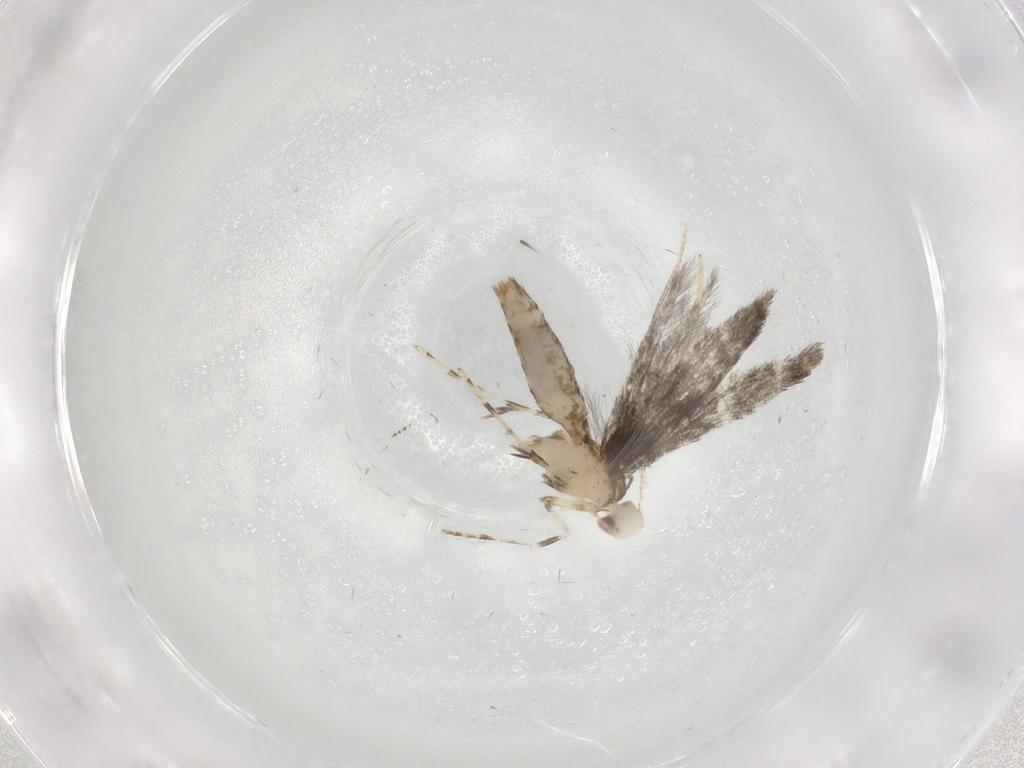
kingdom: Animalia
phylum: Arthropoda
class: Insecta
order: Lepidoptera
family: Gracillariidae
